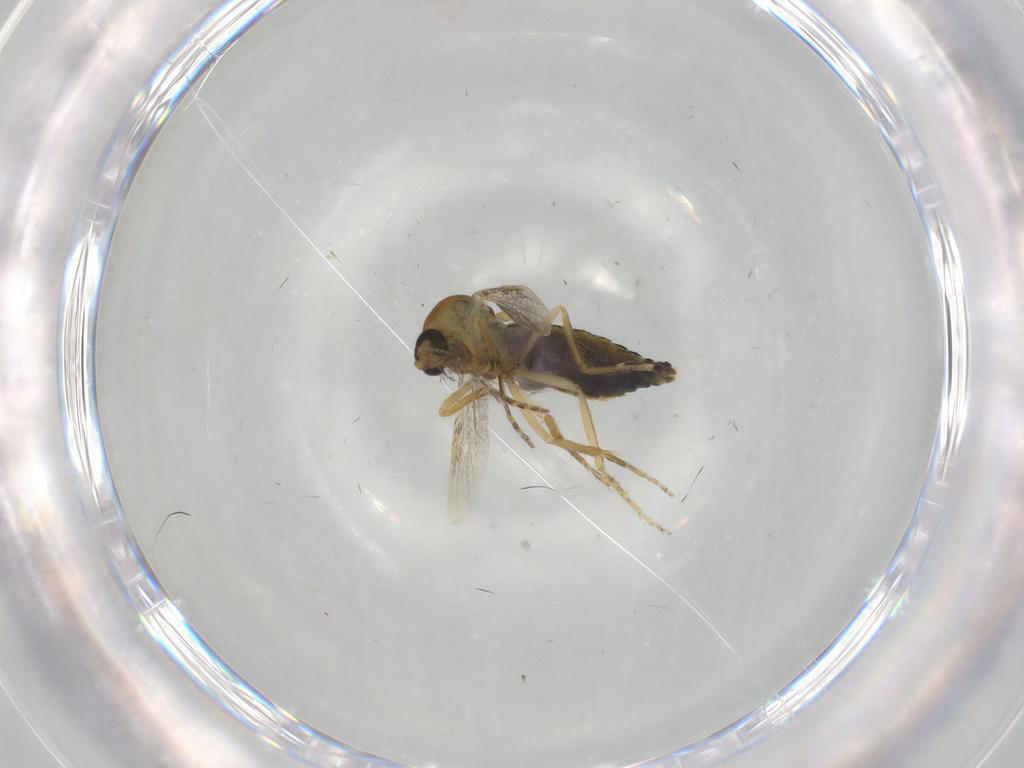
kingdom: Animalia
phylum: Arthropoda
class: Insecta
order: Diptera
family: Ceratopogonidae
